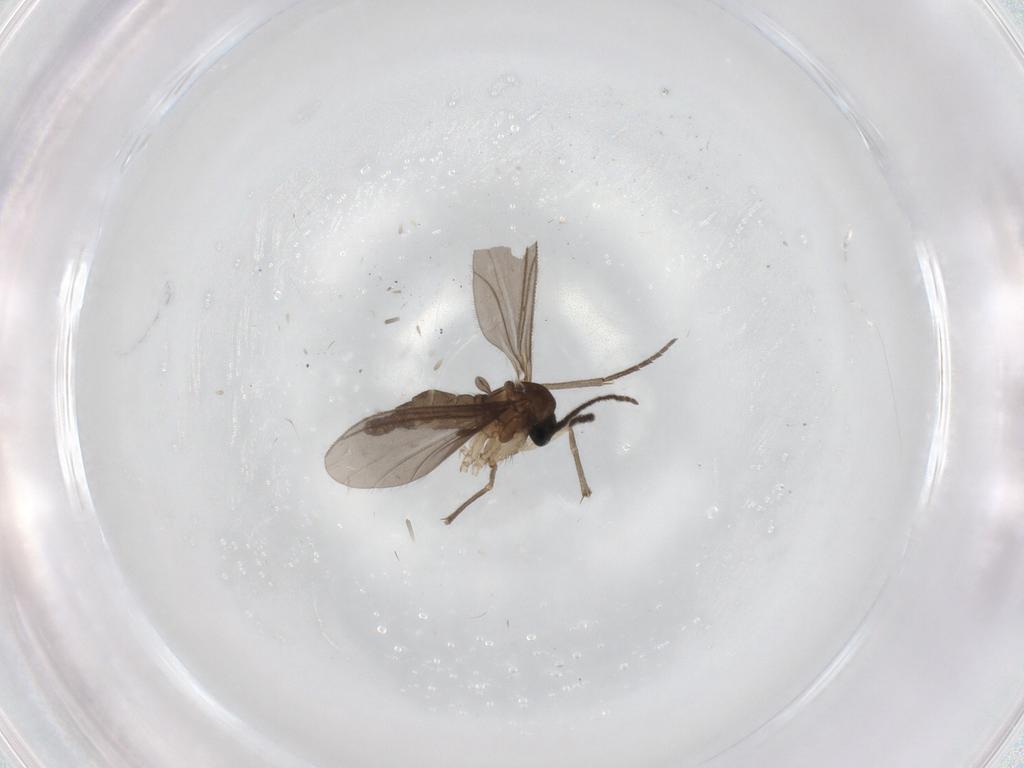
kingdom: Animalia
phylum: Arthropoda
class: Insecta
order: Diptera
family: Sciaridae
